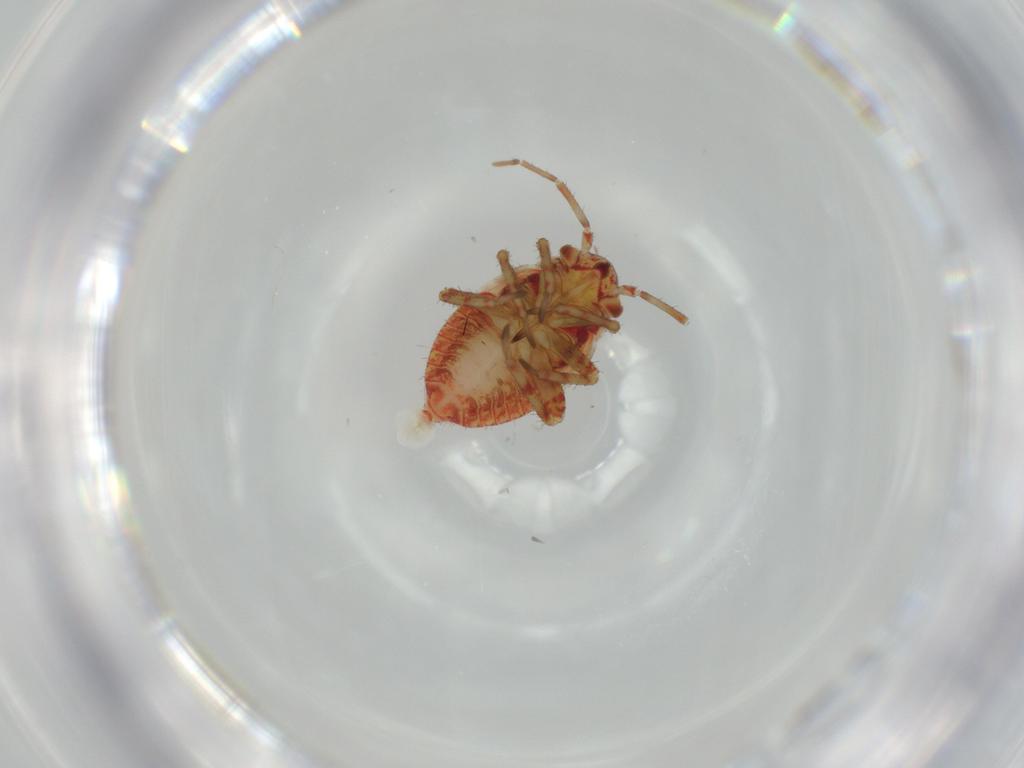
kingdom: Animalia
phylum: Arthropoda
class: Insecta
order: Hemiptera
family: Miridae
